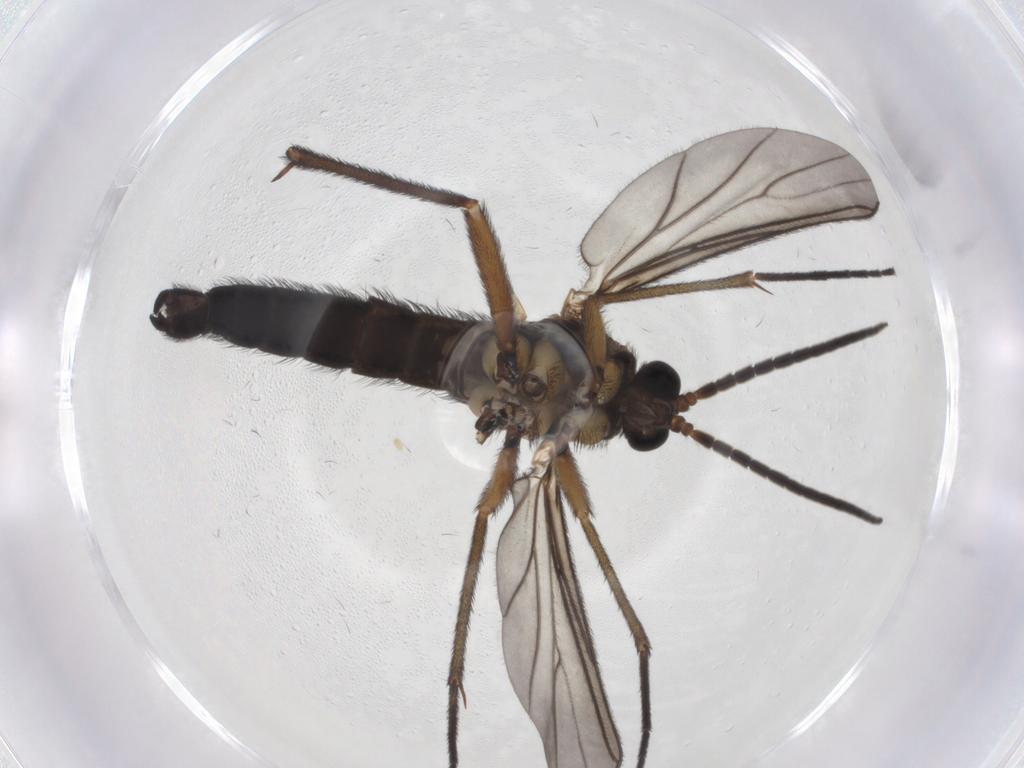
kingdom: Animalia
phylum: Arthropoda
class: Insecta
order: Diptera
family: Sciaridae
